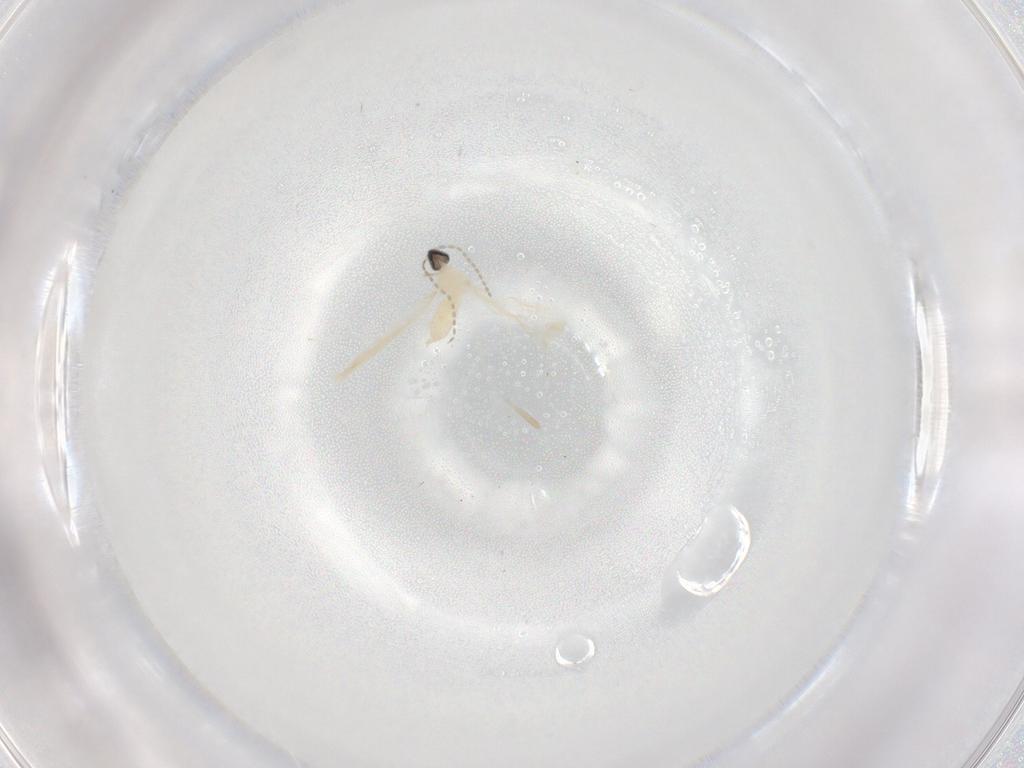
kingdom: Animalia
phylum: Arthropoda
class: Insecta
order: Diptera
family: Cecidomyiidae
